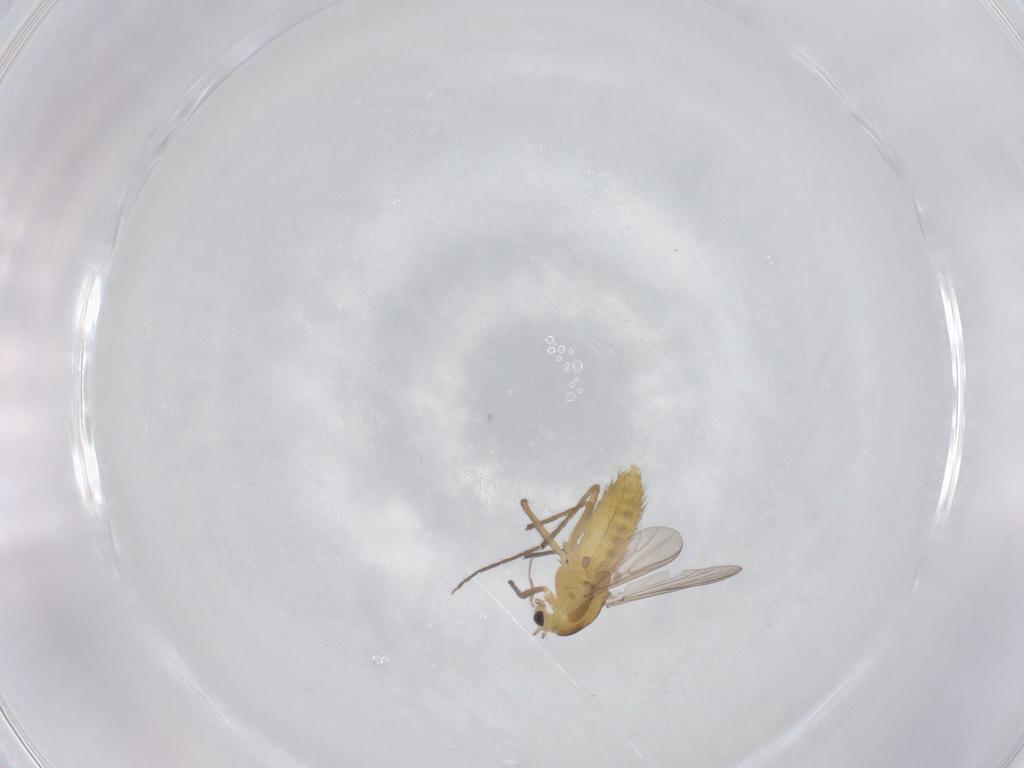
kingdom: Animalia
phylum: Arthropoda
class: Insecta
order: Diptera
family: Chironomidae
